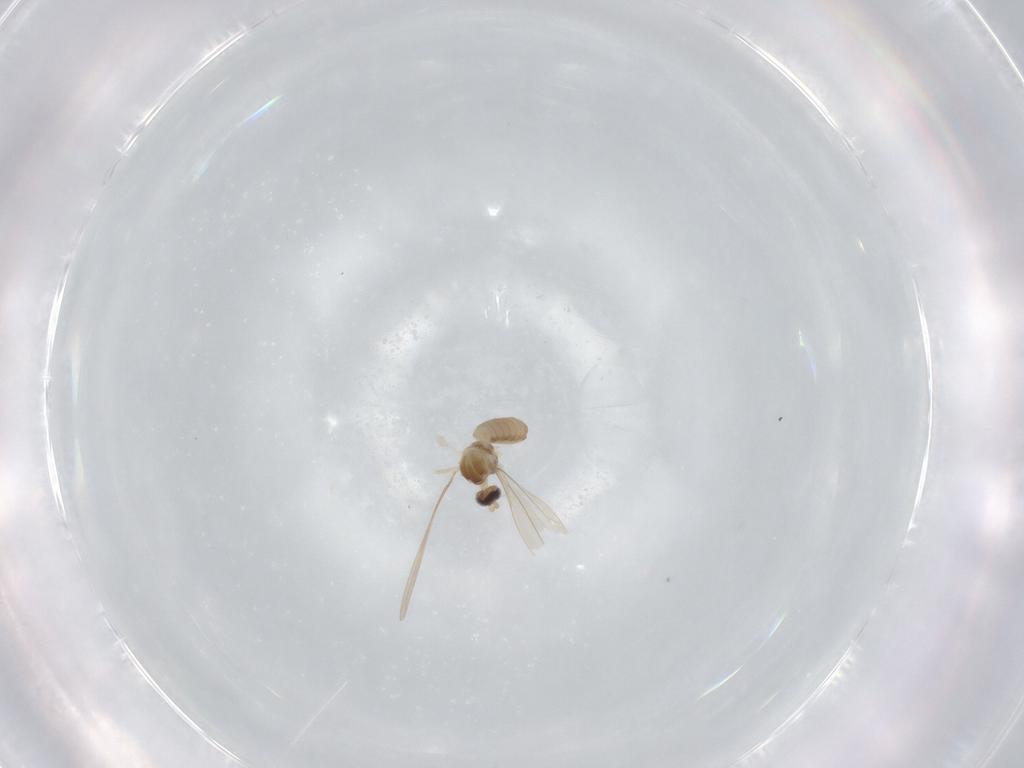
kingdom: Animalia
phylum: Arthropoda
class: Insecta
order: Diptera
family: Cecidomyiidae
